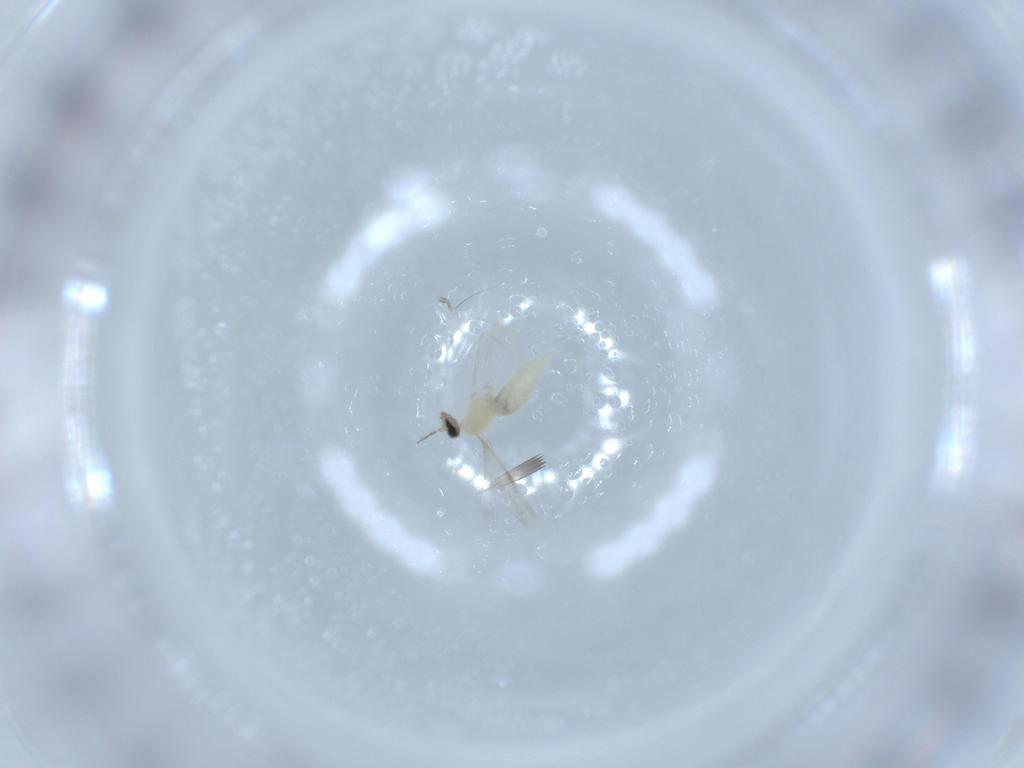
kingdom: Animalia
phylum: Arthropoda
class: Insecta
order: Diptera
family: Cecidomyiidae
